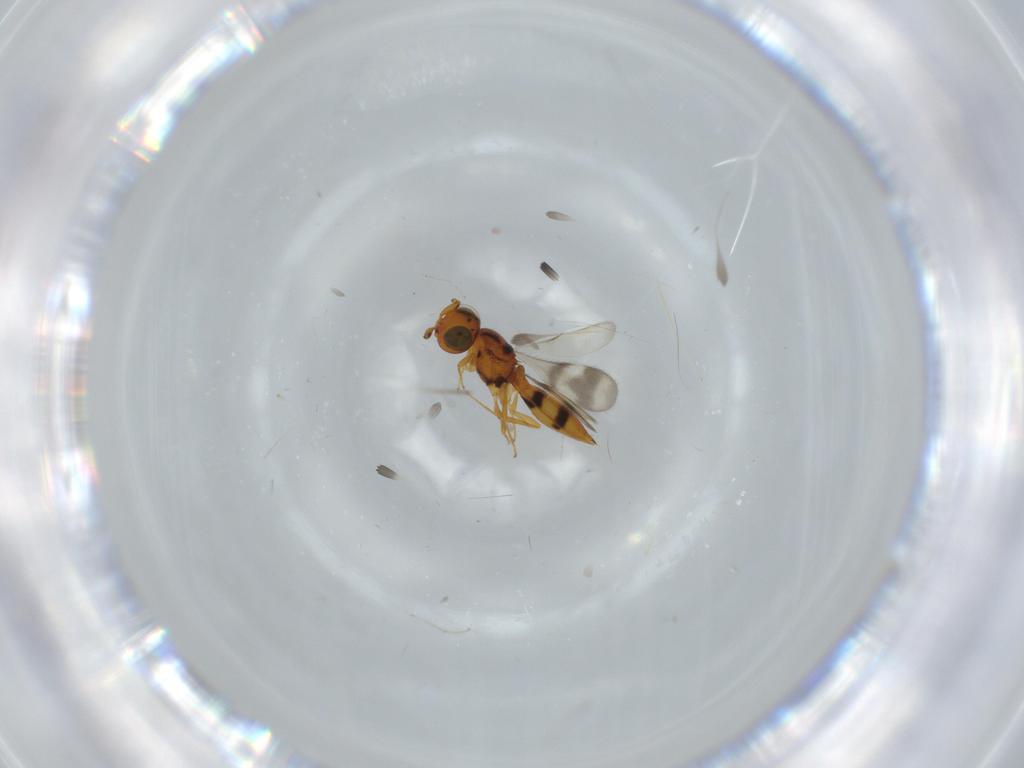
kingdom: Animalia
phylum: Arthropoda
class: Insecta
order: Hymenoptera
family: Scelionidae
